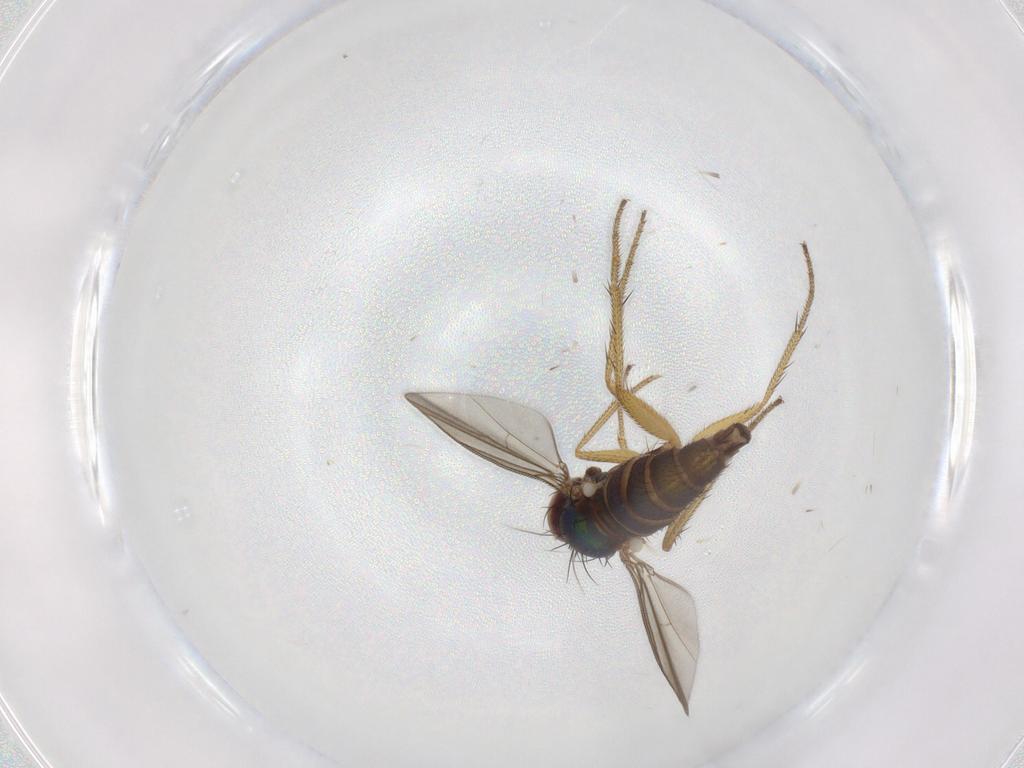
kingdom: Animalia
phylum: Arthropoda
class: Insecta
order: Diptera
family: Dolichopodidae
